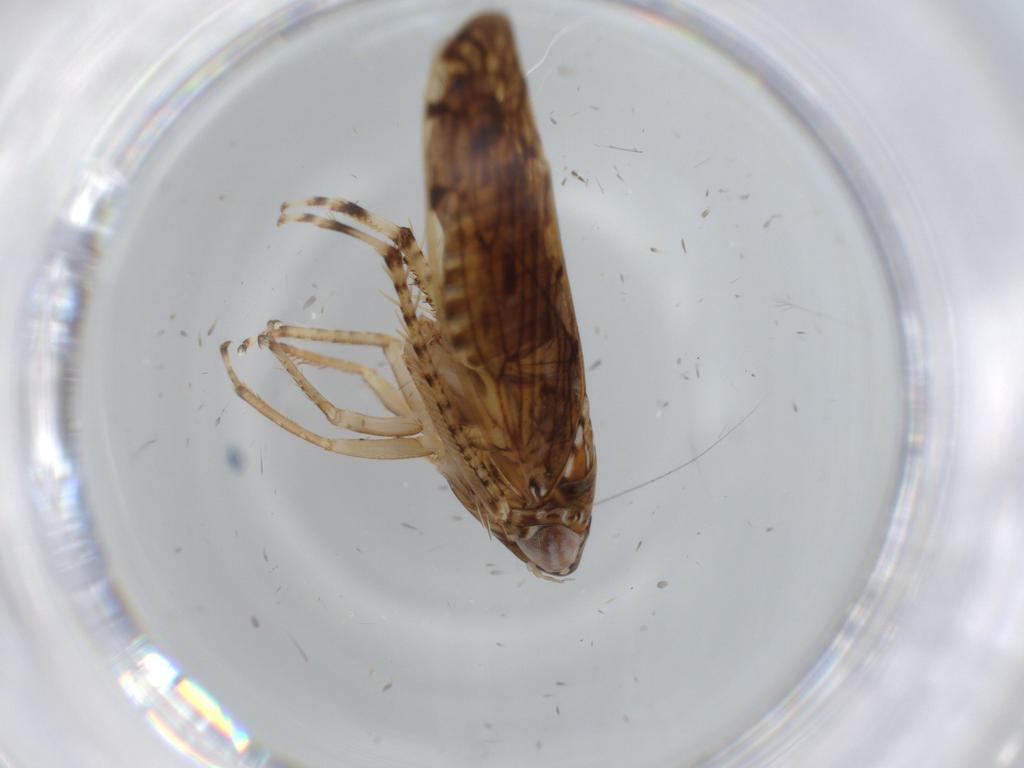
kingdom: Animalia
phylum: Arthropoda
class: Insecta
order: Hemiptera
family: Cicadellidae
